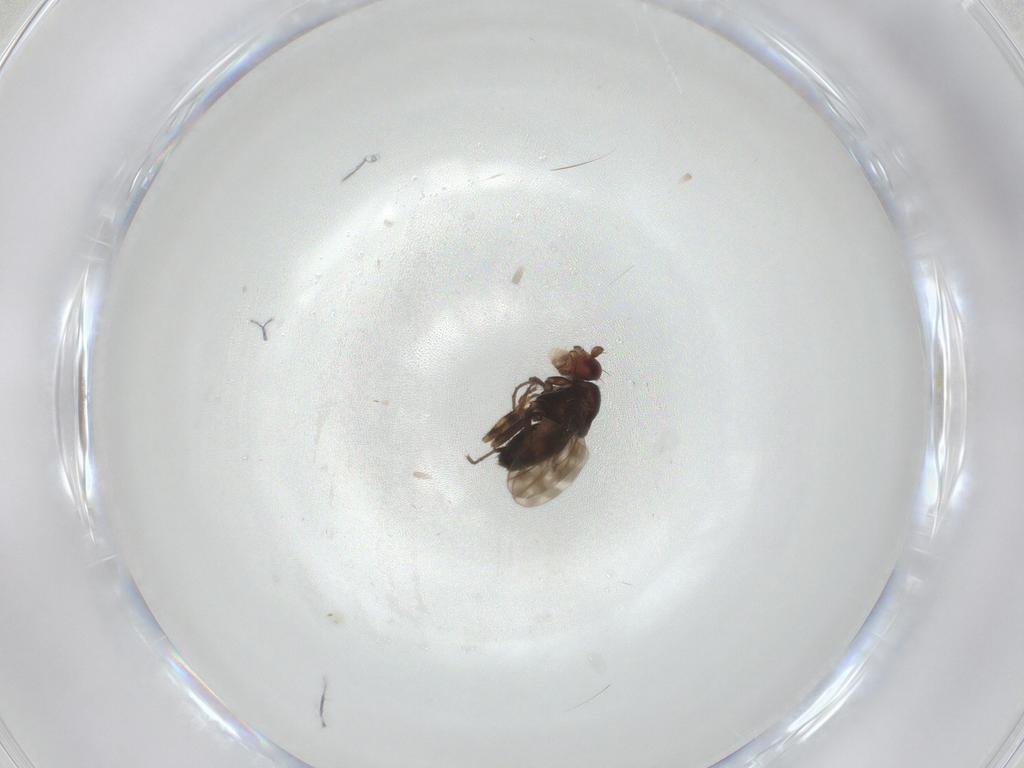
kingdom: Animalia
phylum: Arthropoda
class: Insecta
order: Diptera
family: Sphaeroceridae
